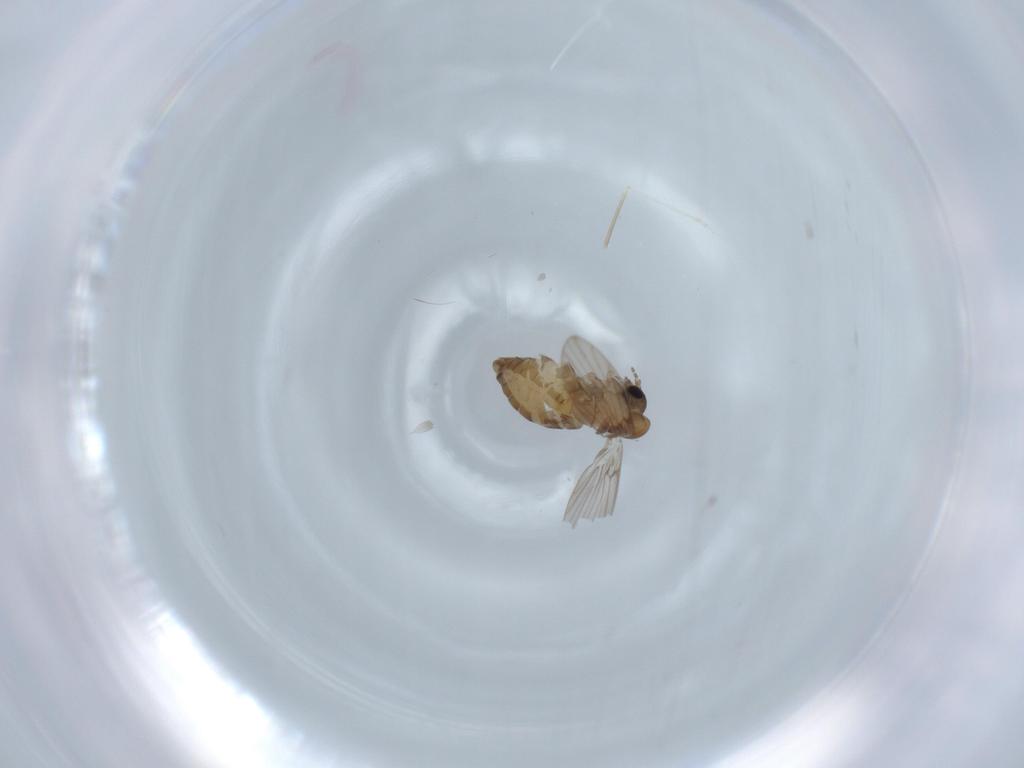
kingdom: Animalia
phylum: Arthropoda
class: Insecta
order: Diptera
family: Psychodidae
